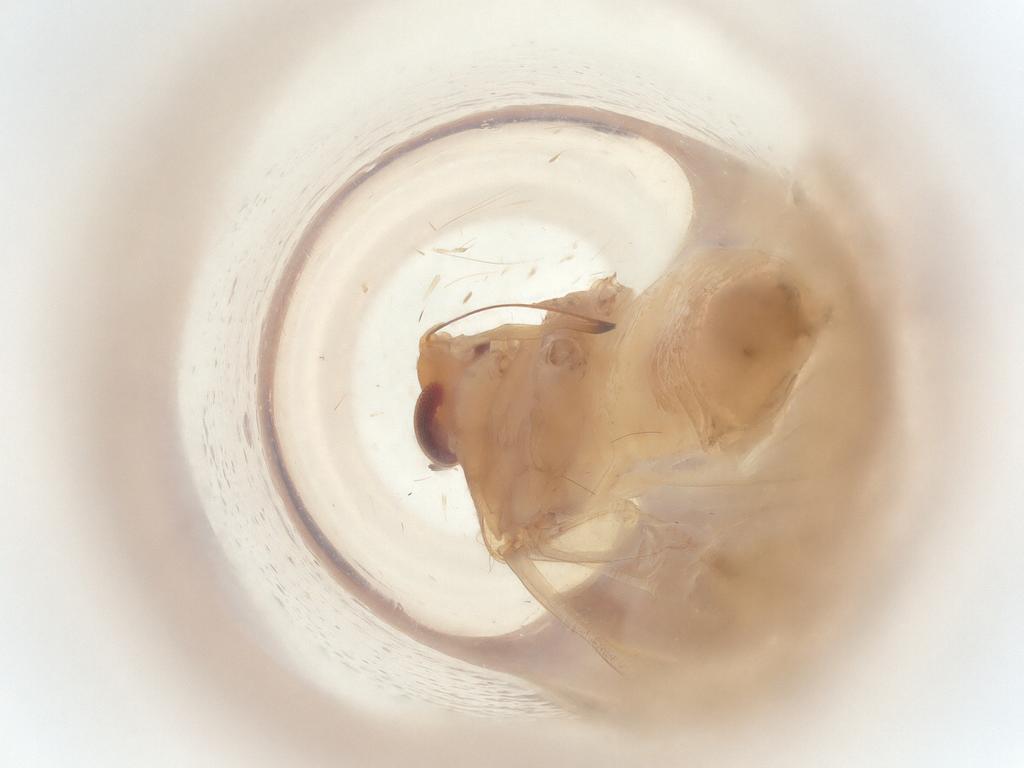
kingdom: Animalia
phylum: Arthropoda
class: Insecta
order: Hemiptera
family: Miridae
